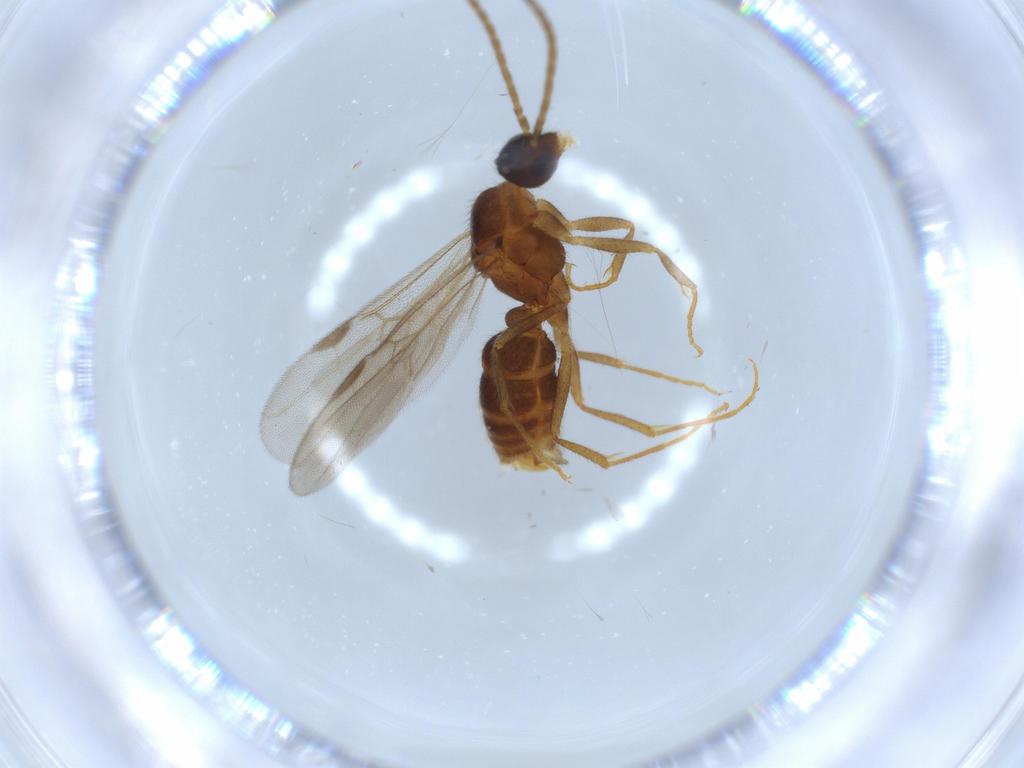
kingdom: Animalia
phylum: Arthropoda
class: Insecta
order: Hymenoptera
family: Formicidae
